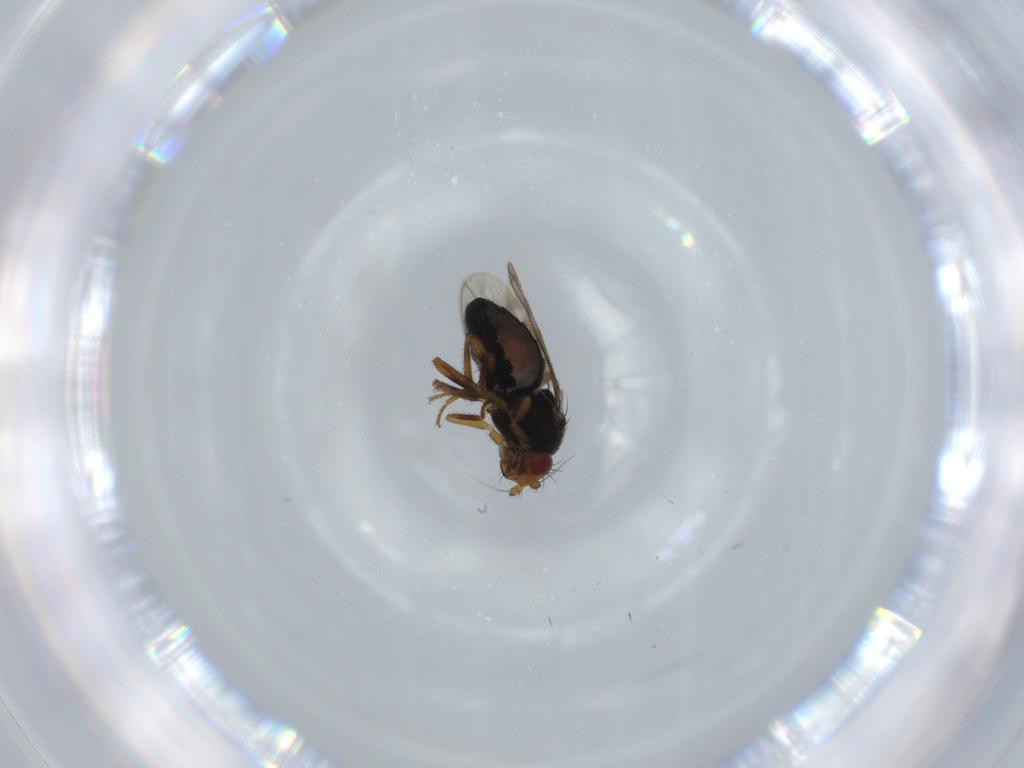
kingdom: Animalia
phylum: Arthropoda
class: Insecta
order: Diptera
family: Sphaeroceridae
